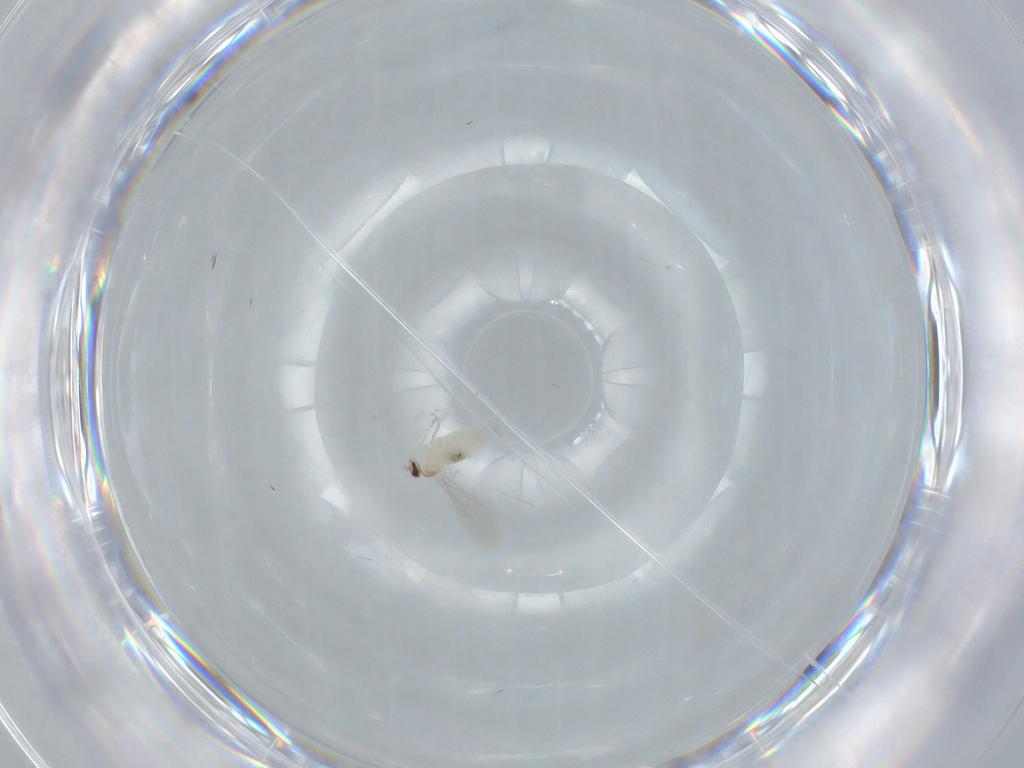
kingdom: Animalia
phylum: Arthropoda
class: Insecta
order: Diptera
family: Cecidomyiidae
